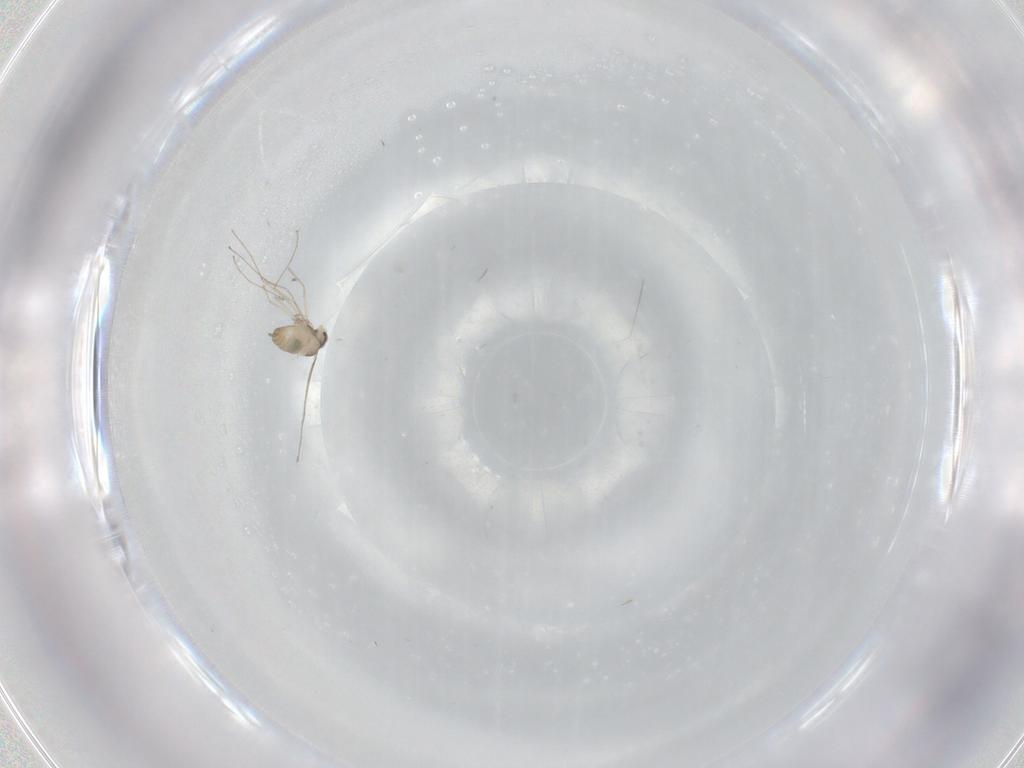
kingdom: Animalia
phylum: Arthropoda
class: Insecta
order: Diptera
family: Cecidomyiidae
